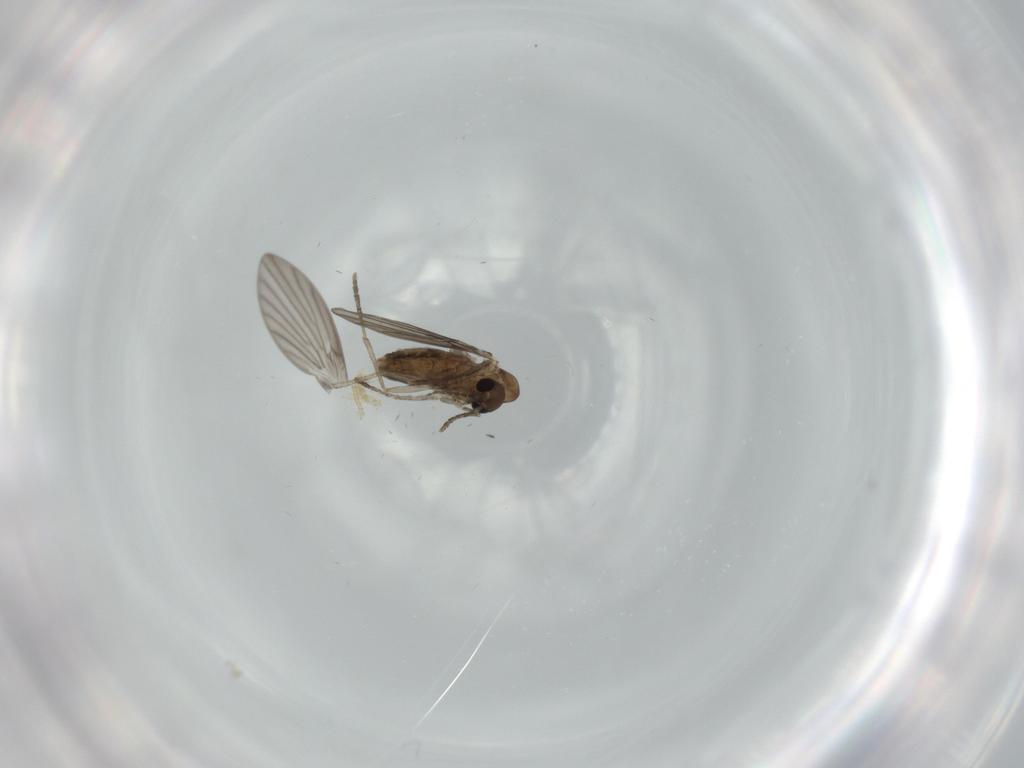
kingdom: Animalia
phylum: Arthropoda
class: Insecta
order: Diptera
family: Psychodidae
